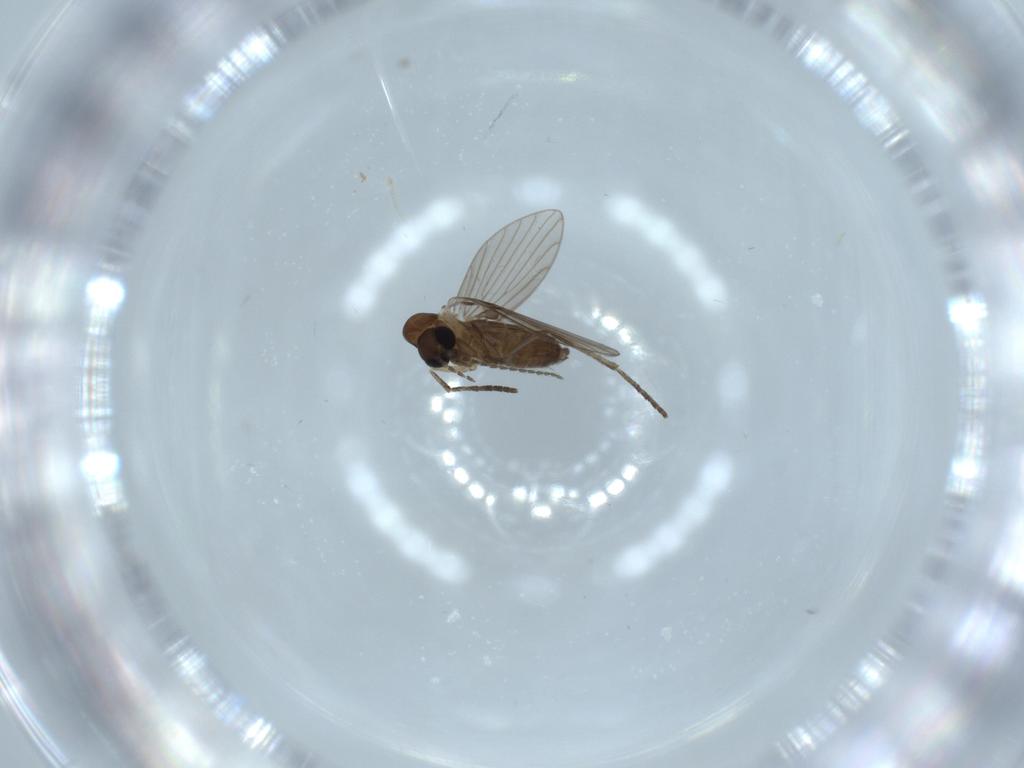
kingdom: Animalia
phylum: Arthropoda
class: Insecta
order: Diptera
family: Psychodidae
